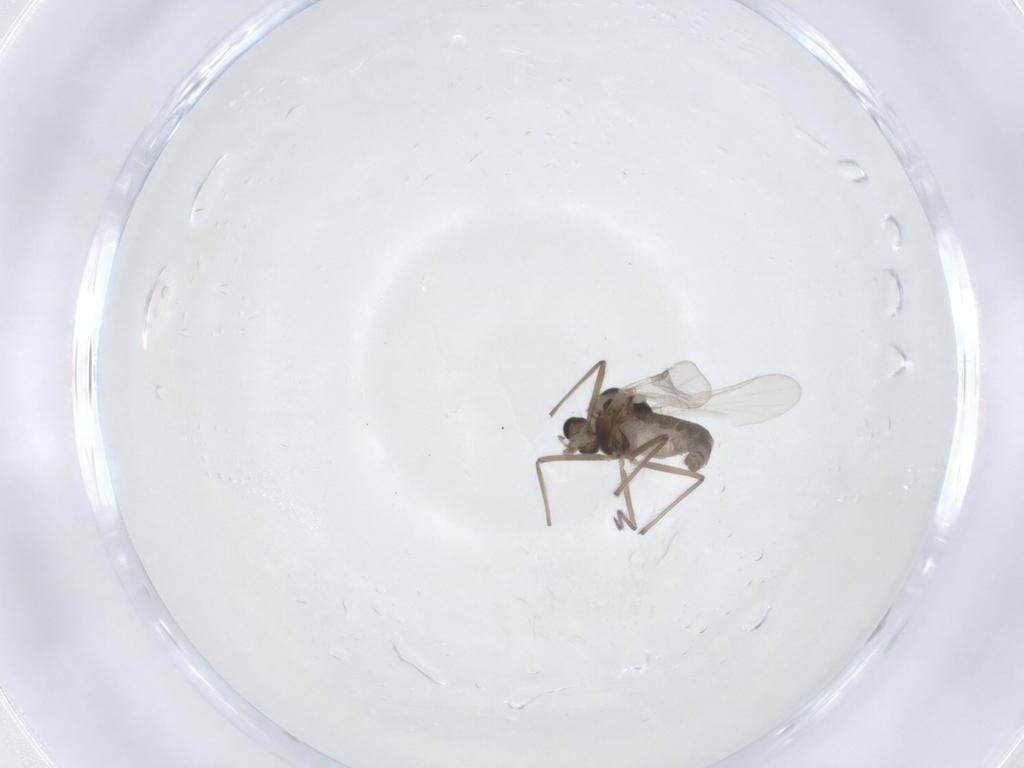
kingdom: Animalia
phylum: Arthropoda
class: Insecta
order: Diptera
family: Chironomidae
